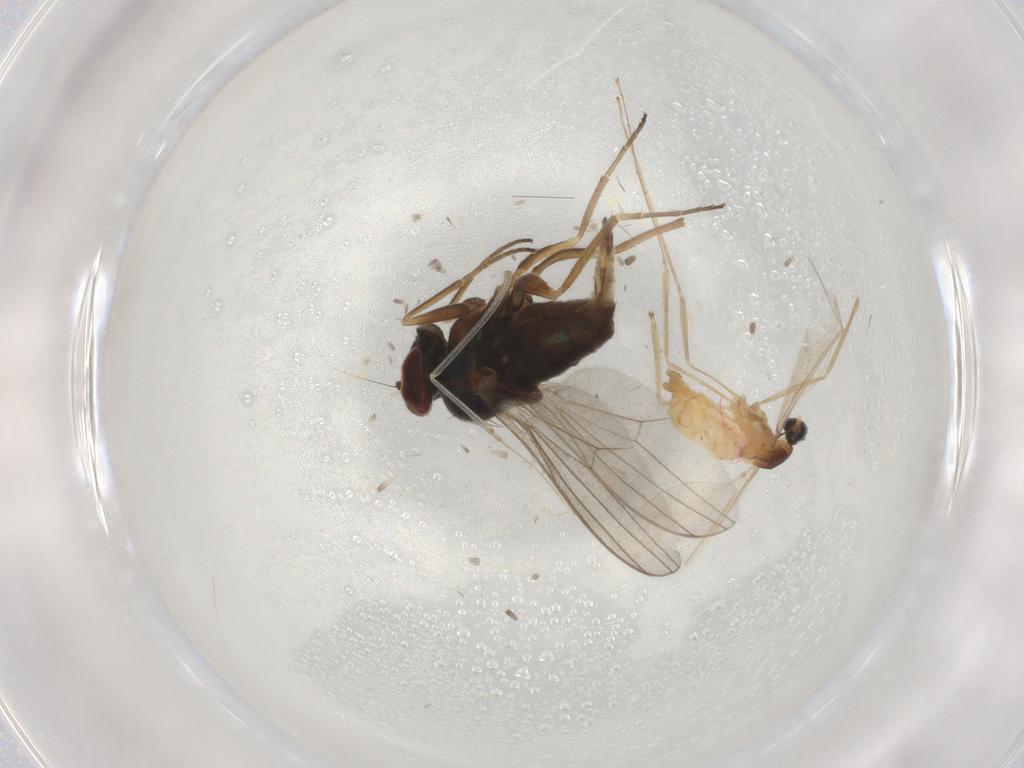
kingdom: Animalia
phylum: Arthropoda
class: Insecta
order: Diptera
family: Cecidomyiidae
